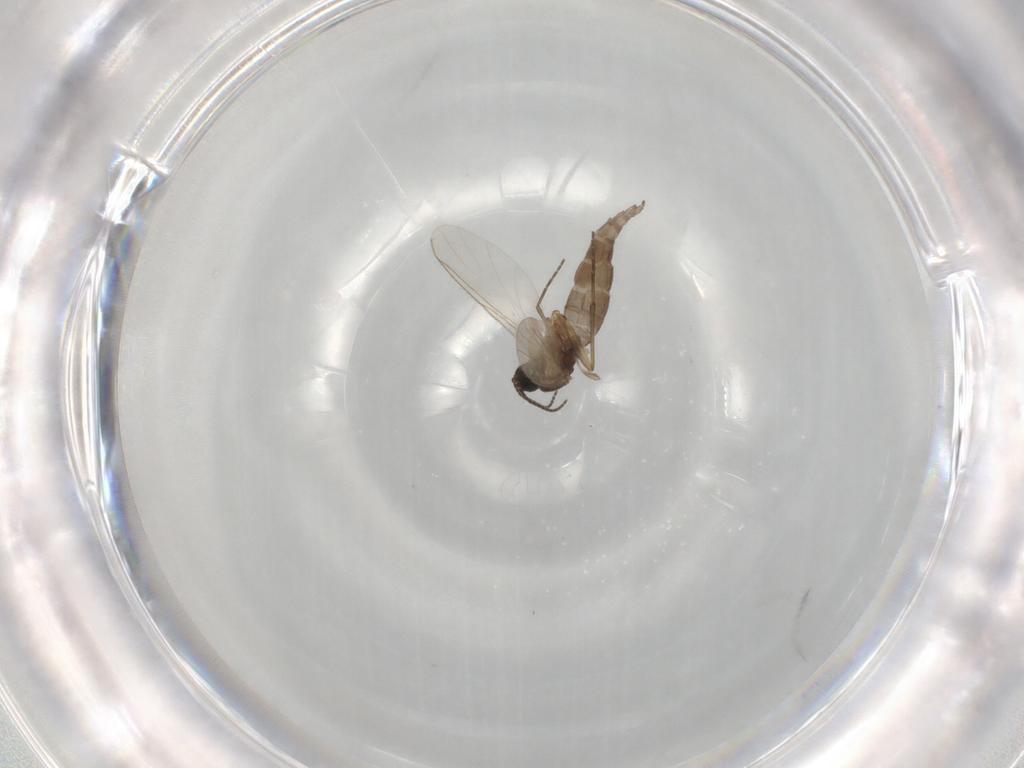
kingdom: Animalia
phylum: Arthropoda
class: Insecta
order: Diptera
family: Sciaridae
